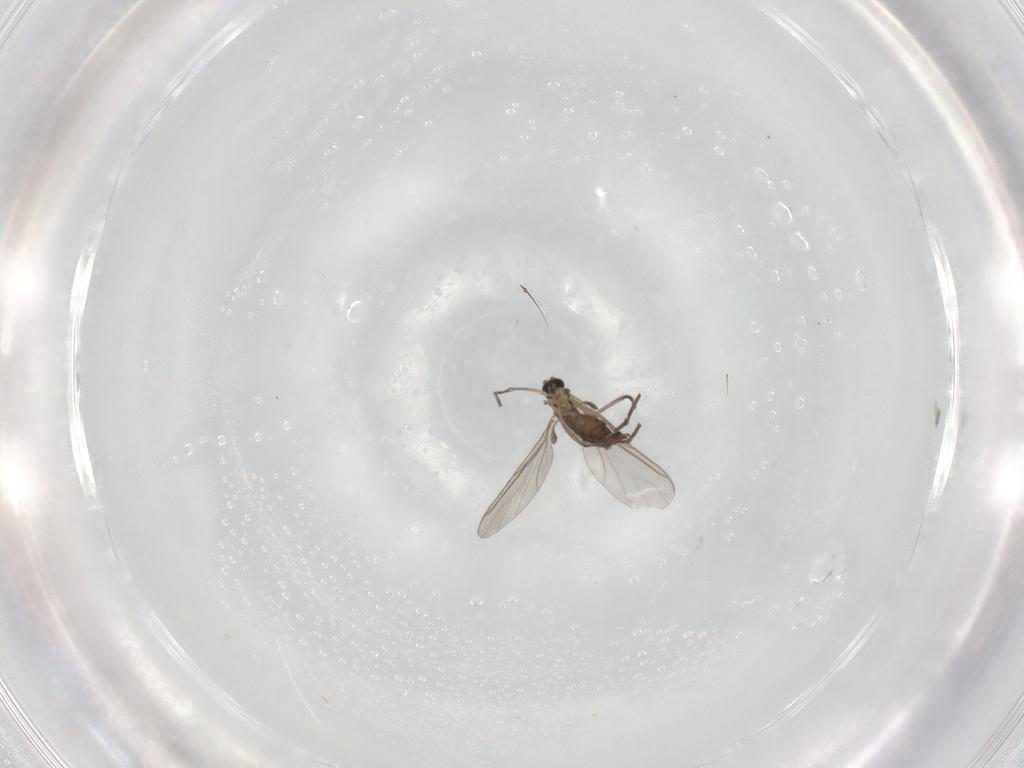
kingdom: Animalia
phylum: Arthropoda
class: Insecta
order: Diptera
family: Sciaridae
